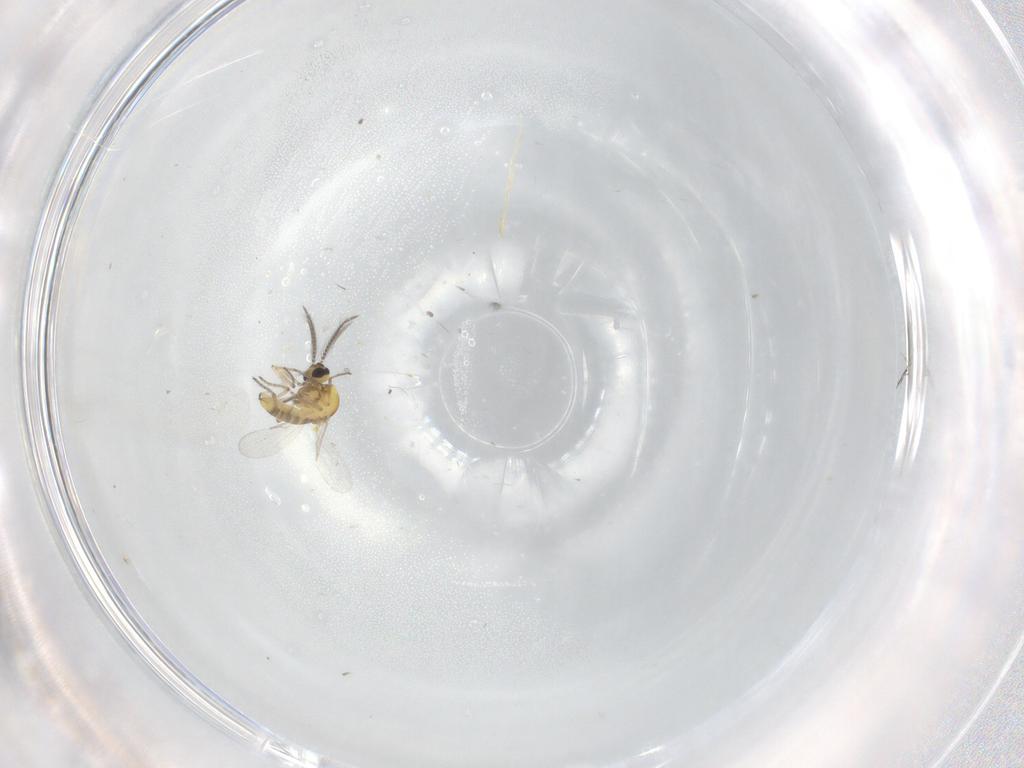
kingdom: Animalia
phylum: Arthropoda
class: Insecta
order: Diptera
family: Ceratopogonidae
